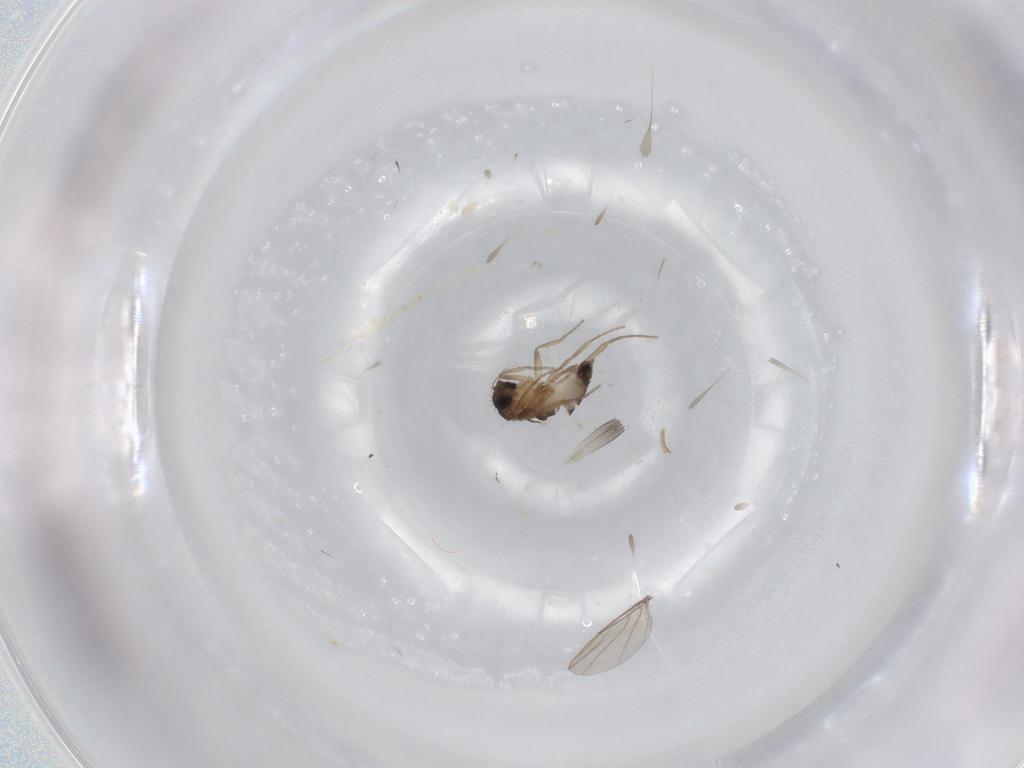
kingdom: Animalia
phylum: Arthropoda
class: Insecta
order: Diptera
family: Phoridae
